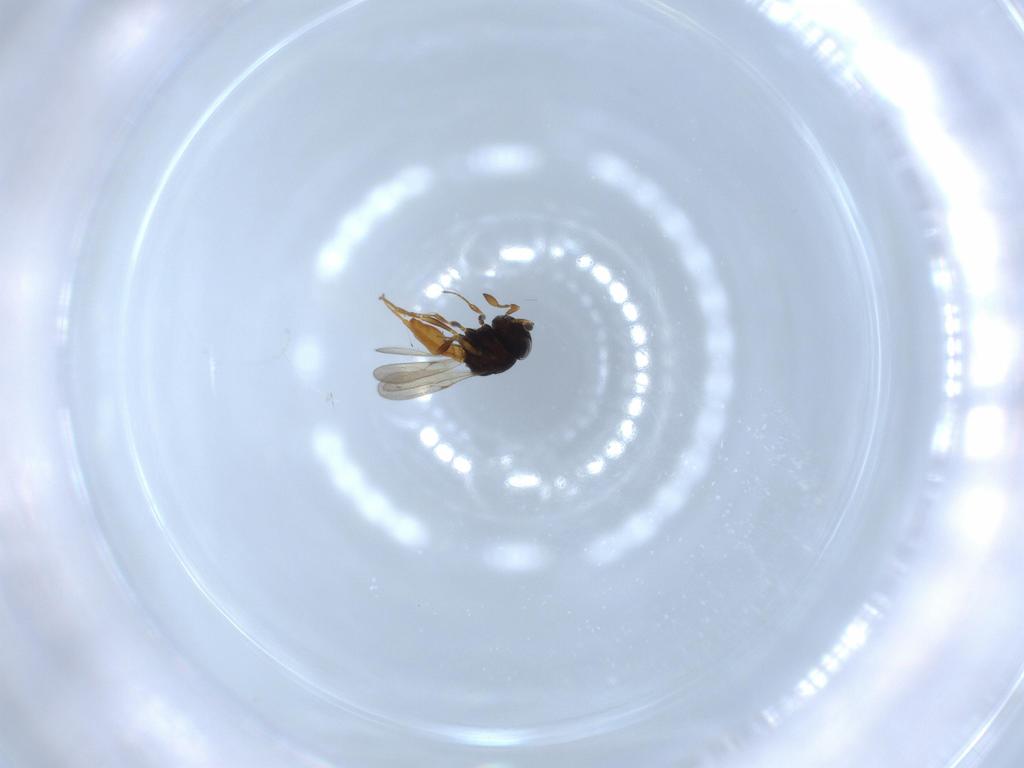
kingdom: Animalia
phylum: Arthropoda
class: Insecta
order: Hymenoptera
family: Scelionidae
